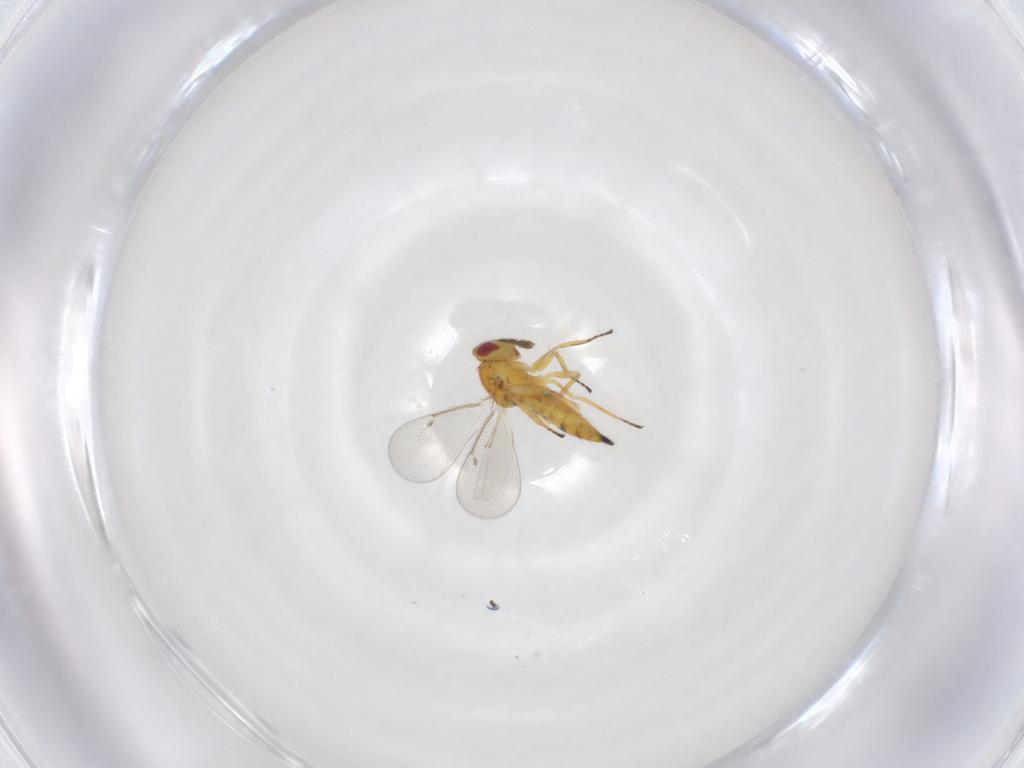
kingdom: Animalia
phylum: Arthropoda
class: Insecta
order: Hymenoptera
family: Eulophidae
